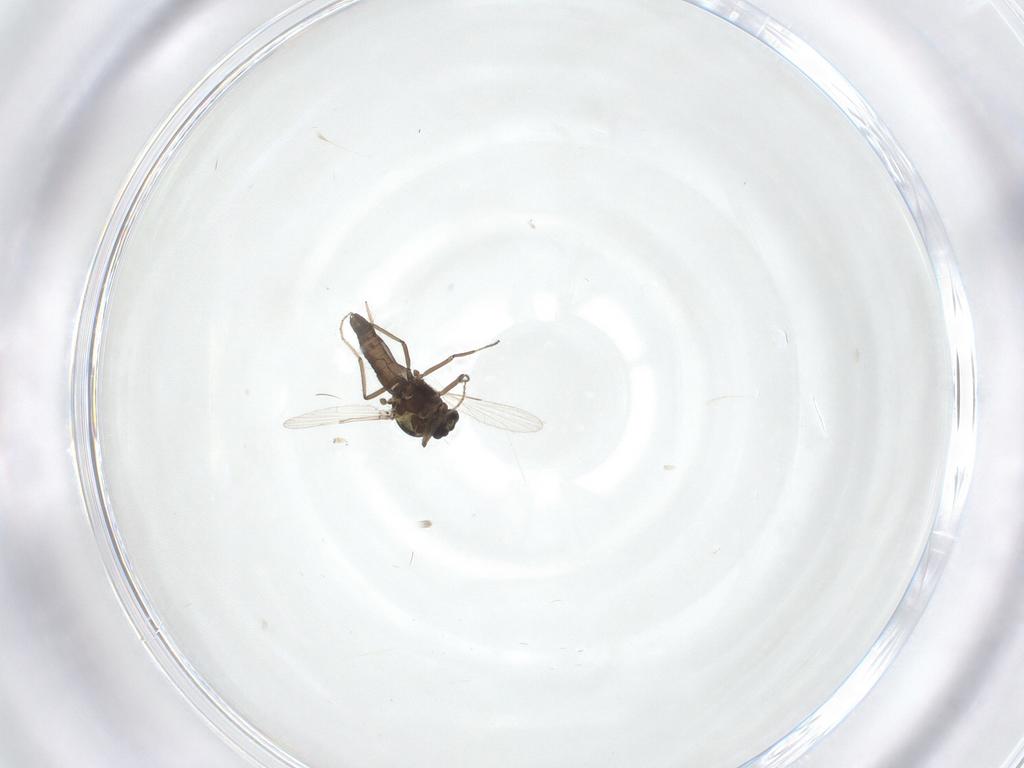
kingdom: Animalia
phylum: Arthropoda
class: Insecta
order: Diptera
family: Ceratopogonidae
